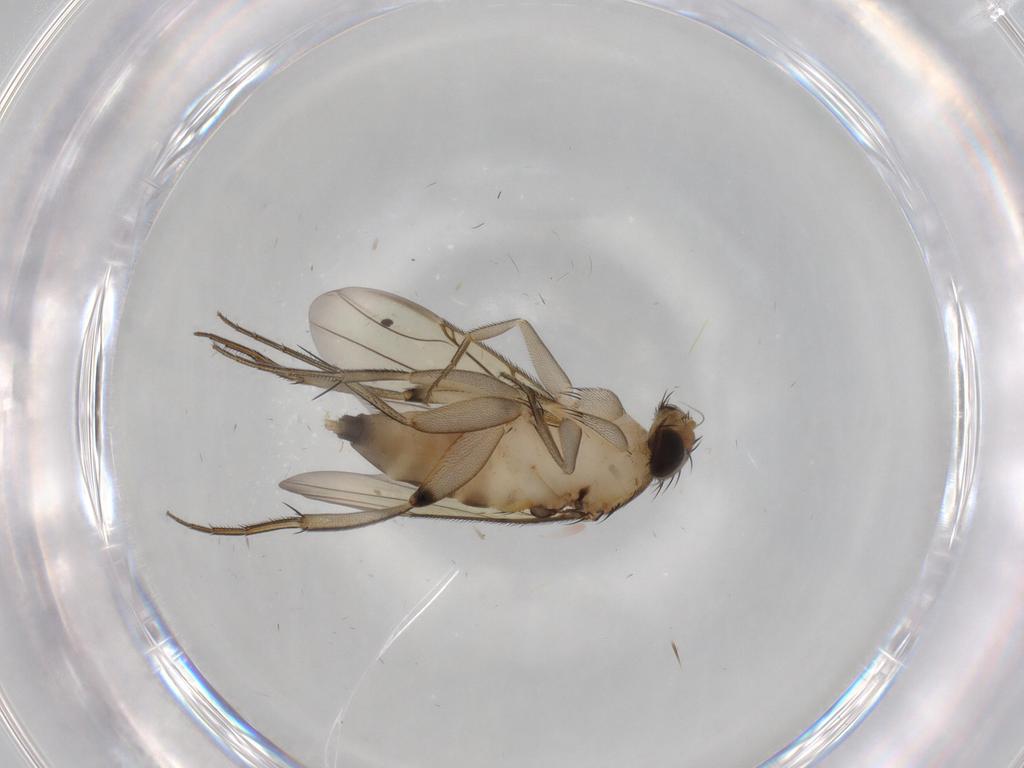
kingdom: Animalia
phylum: Arthropoda
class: Insecta
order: Diptera
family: Phoridae
